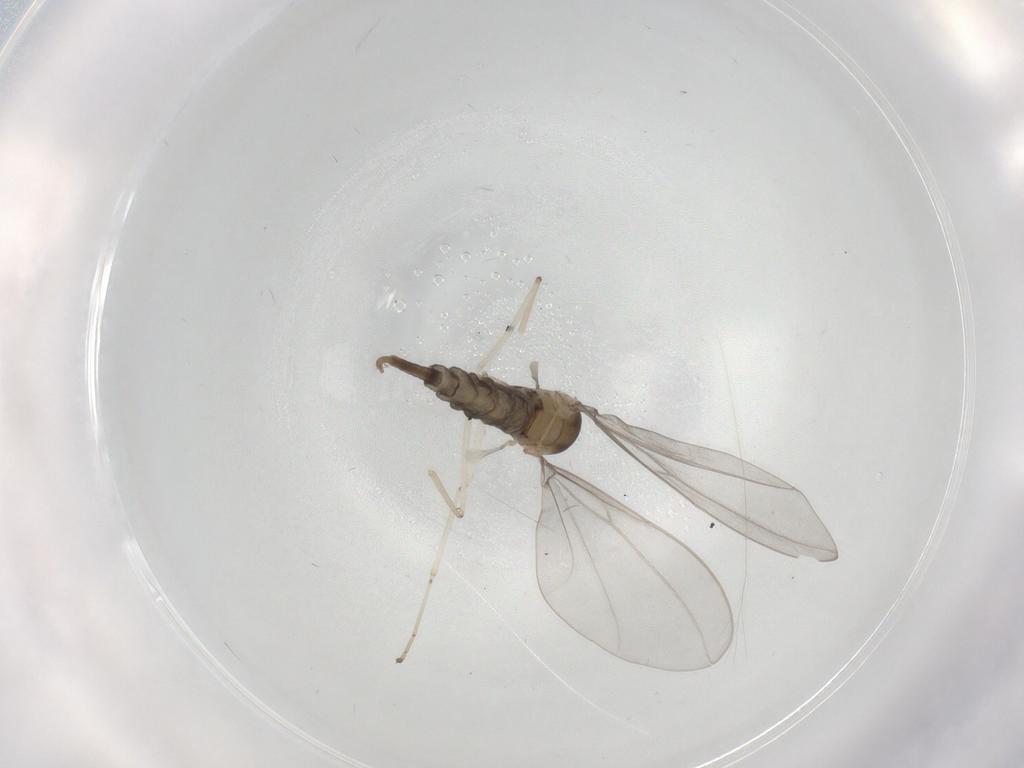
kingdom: Animalia
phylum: Arthropoda
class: Insecta
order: Diptera
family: Cecidomyiidae
